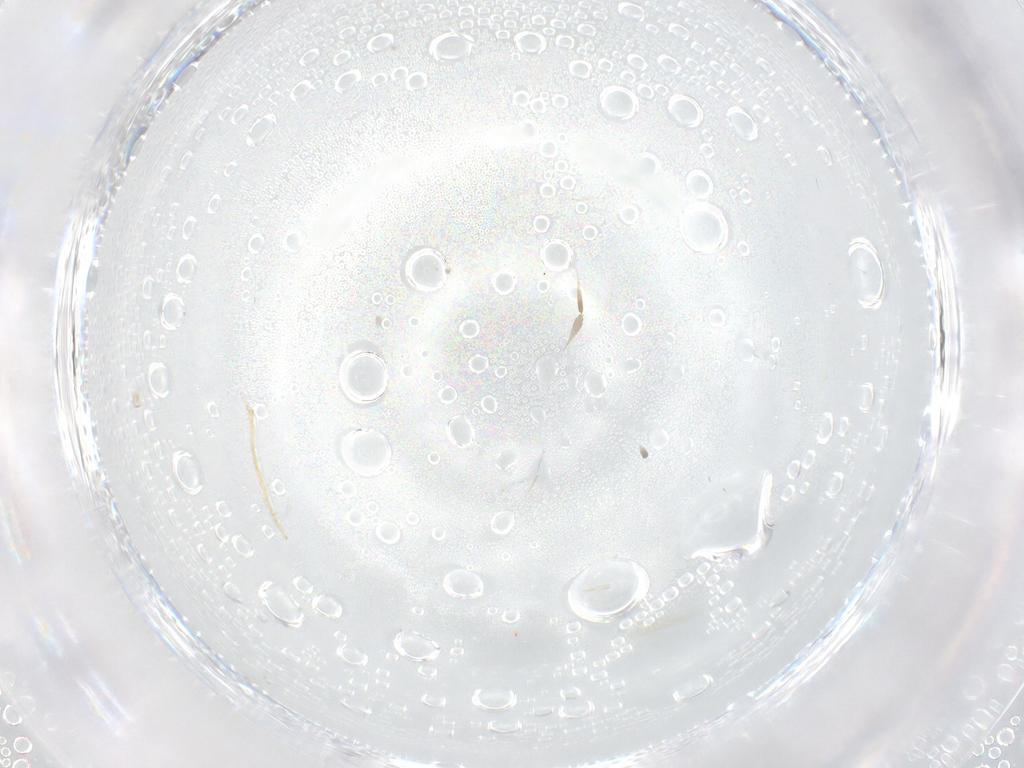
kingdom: Animalia
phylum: Arthropoda
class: Insecta
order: Diptera
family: Cecidomyiidae
